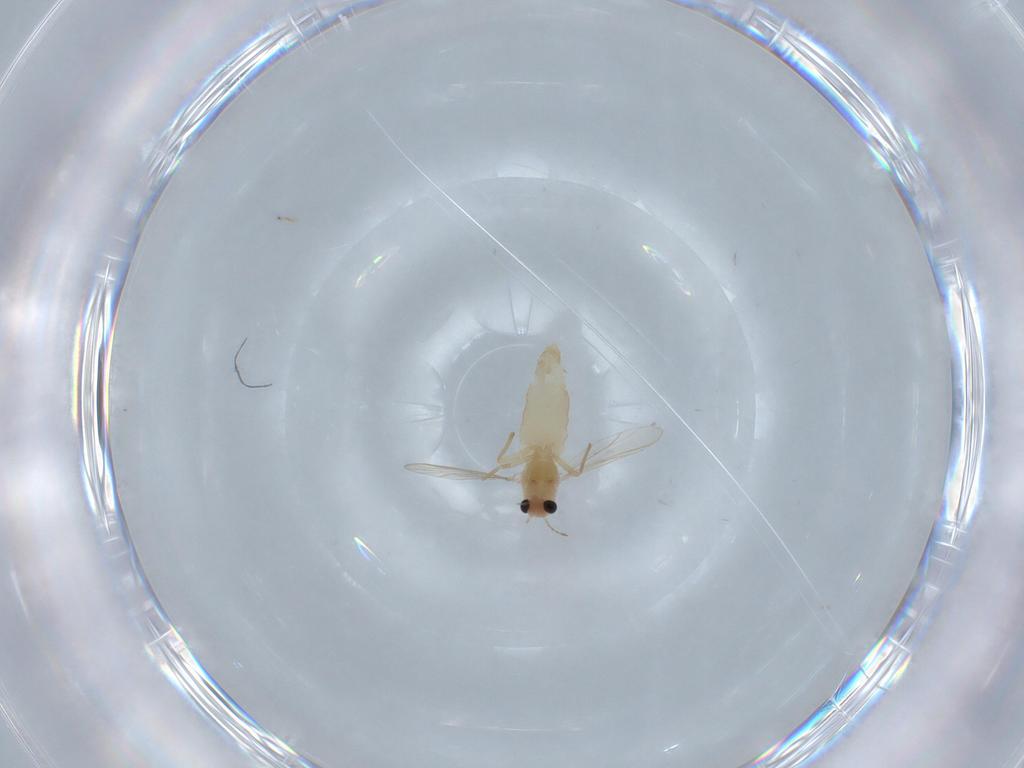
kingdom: Animalia
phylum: Arthropoda
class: Insecta
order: Diptera
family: Chironomidae
